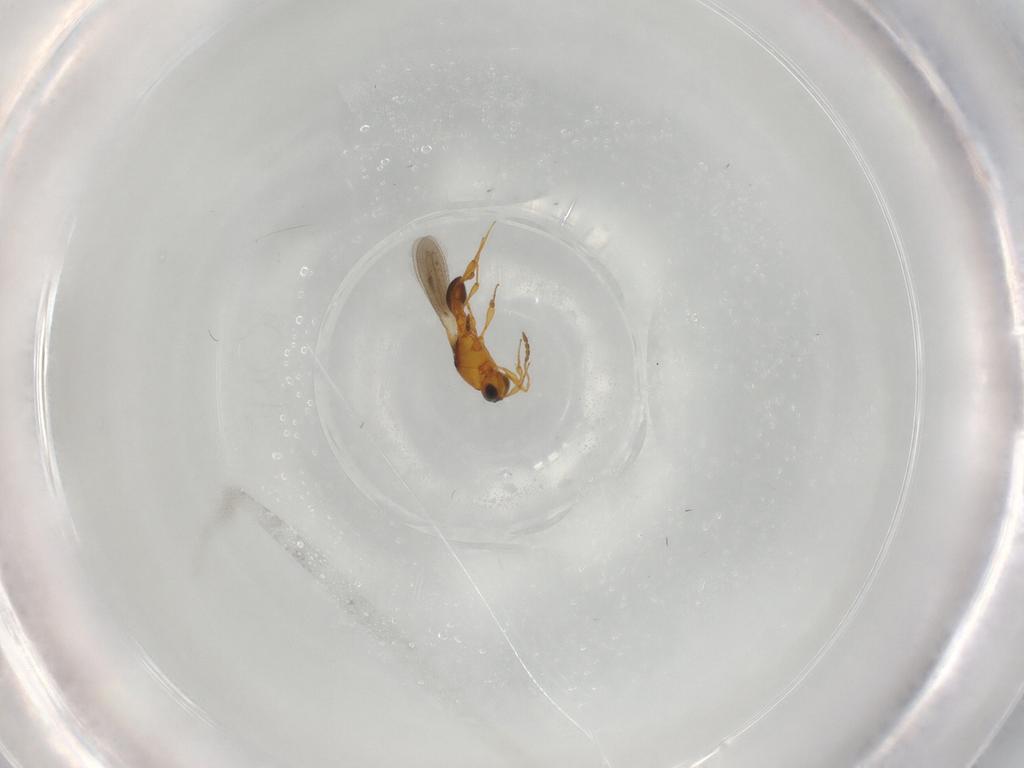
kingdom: Animalia
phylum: Arthropoda
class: Insecta
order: Hymenoptera
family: Platygastridae
